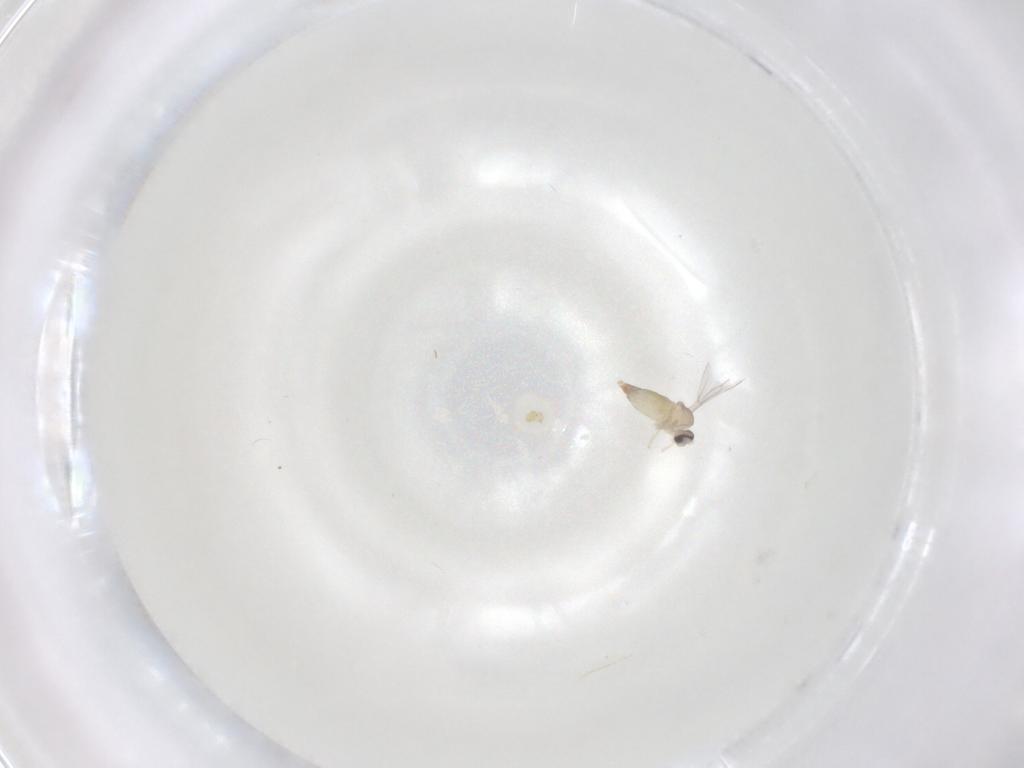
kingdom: Animalia
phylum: Arthropoda
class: Insecta
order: Diptera
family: Cecidomyiidae
